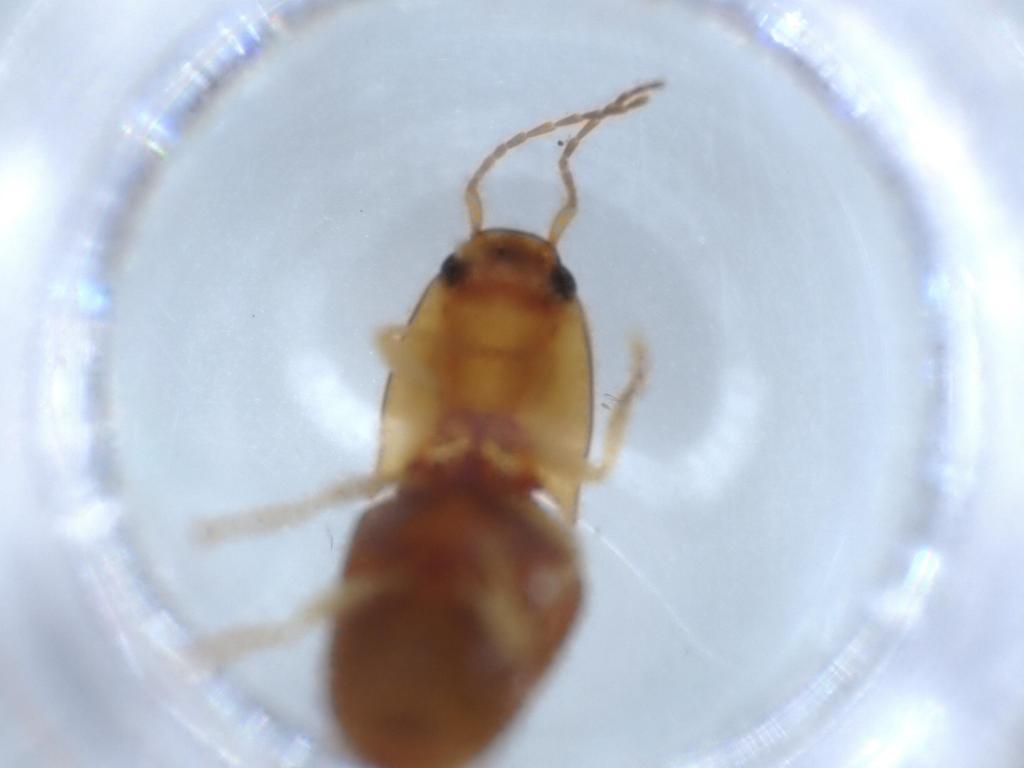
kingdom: Animalia
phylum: Arthropoda
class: Insecta
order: Coleoptera
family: Elateridae
